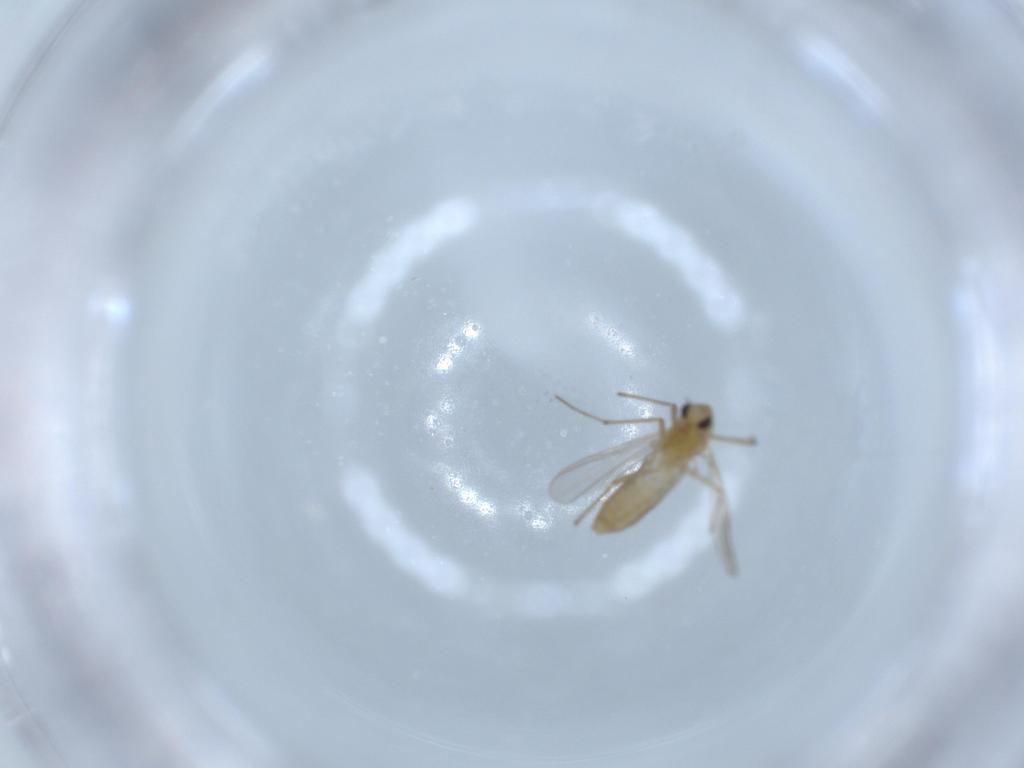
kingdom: Animalia
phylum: Arthropoda
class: Insecta
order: Diptera
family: Chironomidae
